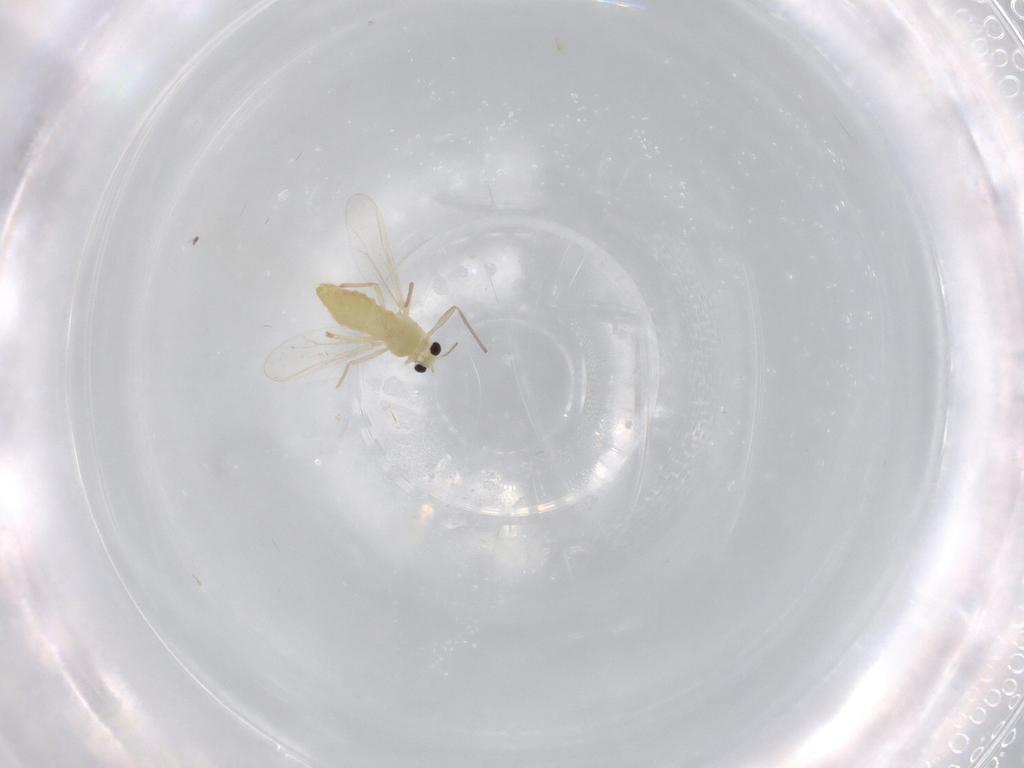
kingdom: Animalia
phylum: Arthropoda
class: Insecta
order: Diptera
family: Chironomidae
